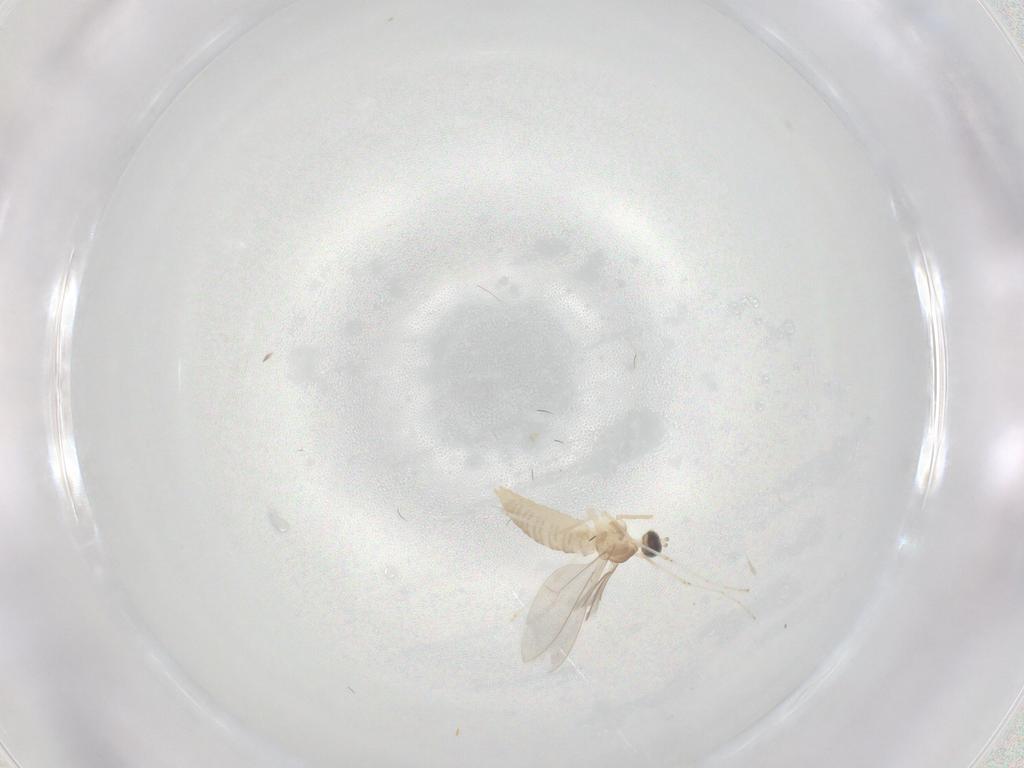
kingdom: Animalia
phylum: Arthropoda
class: Insecta
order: Diptera
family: Cecidomyiidae
